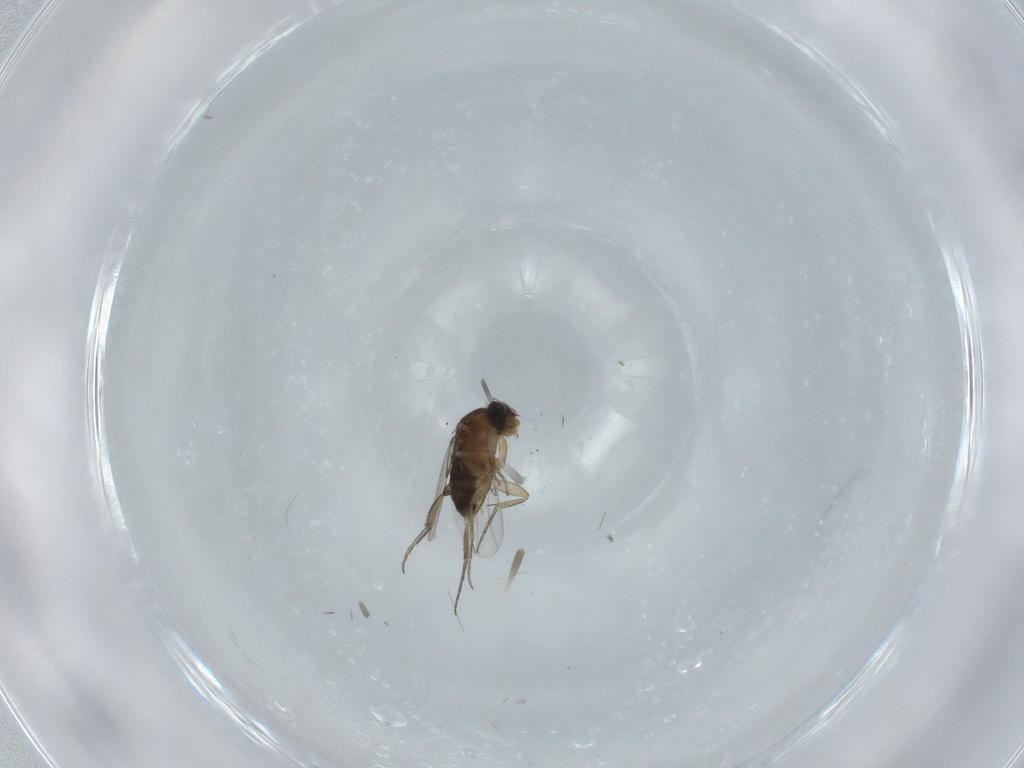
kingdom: Animalia
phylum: Arthropoda
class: Insecta
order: Diptera
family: Phoridae
